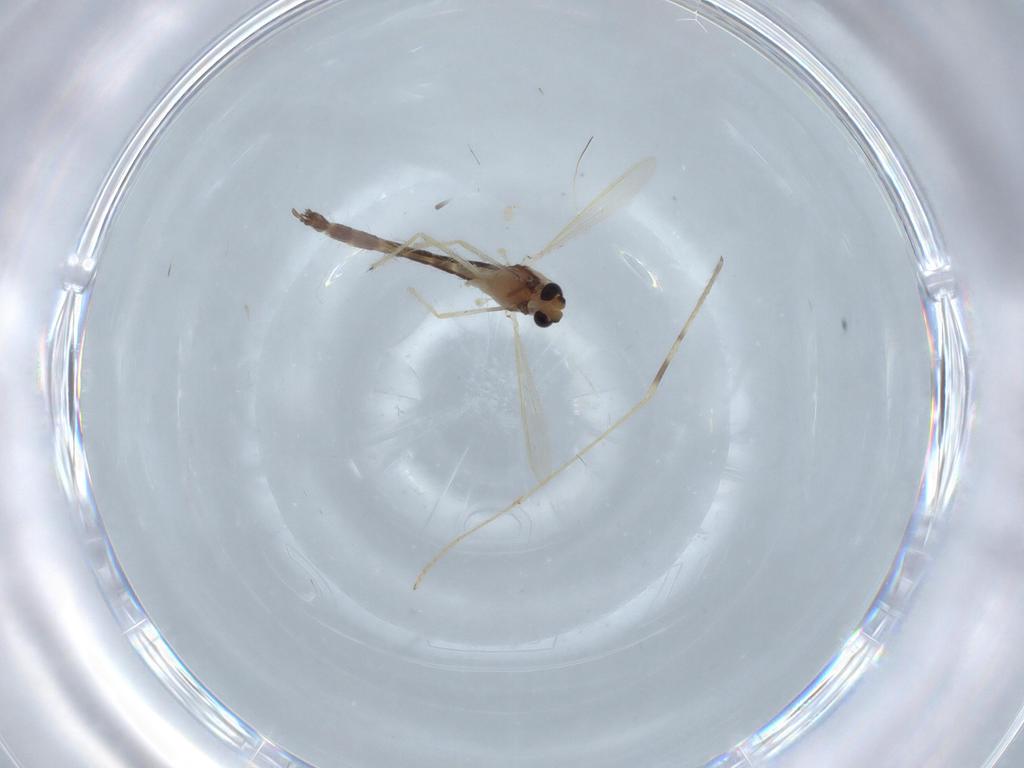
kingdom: Animalia
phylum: Arthropoda
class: Insecta
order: Diptera
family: Chironomidae
